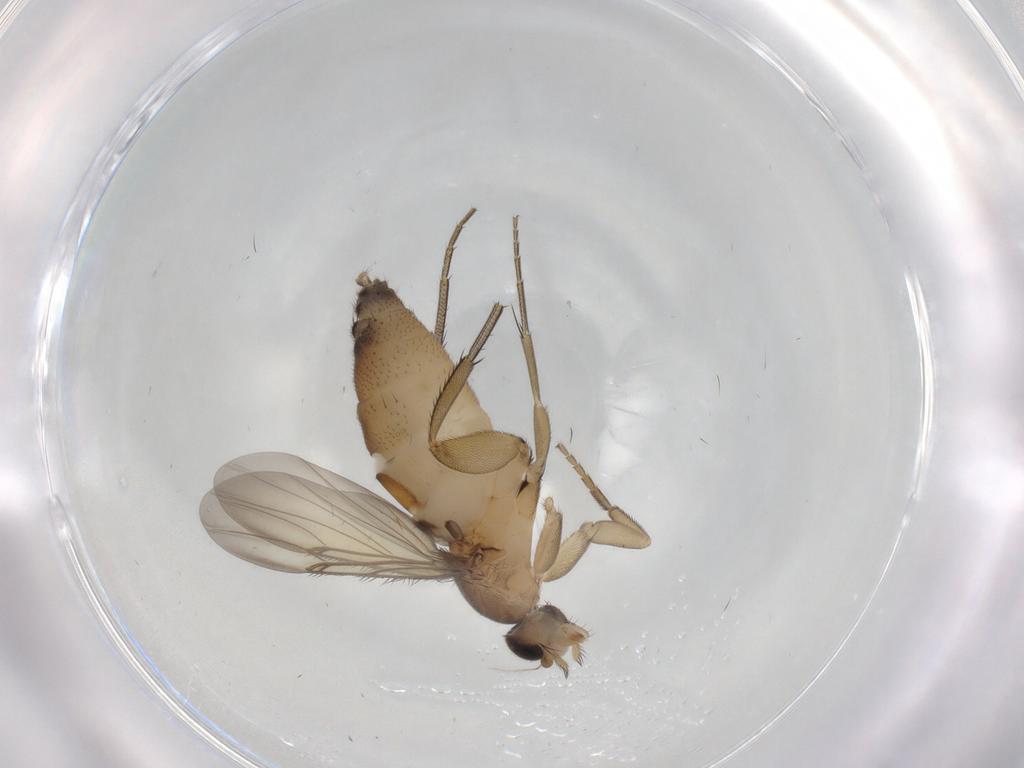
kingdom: Animalia
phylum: Arthropoda
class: Insecta
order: Diptera
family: Phoridae
